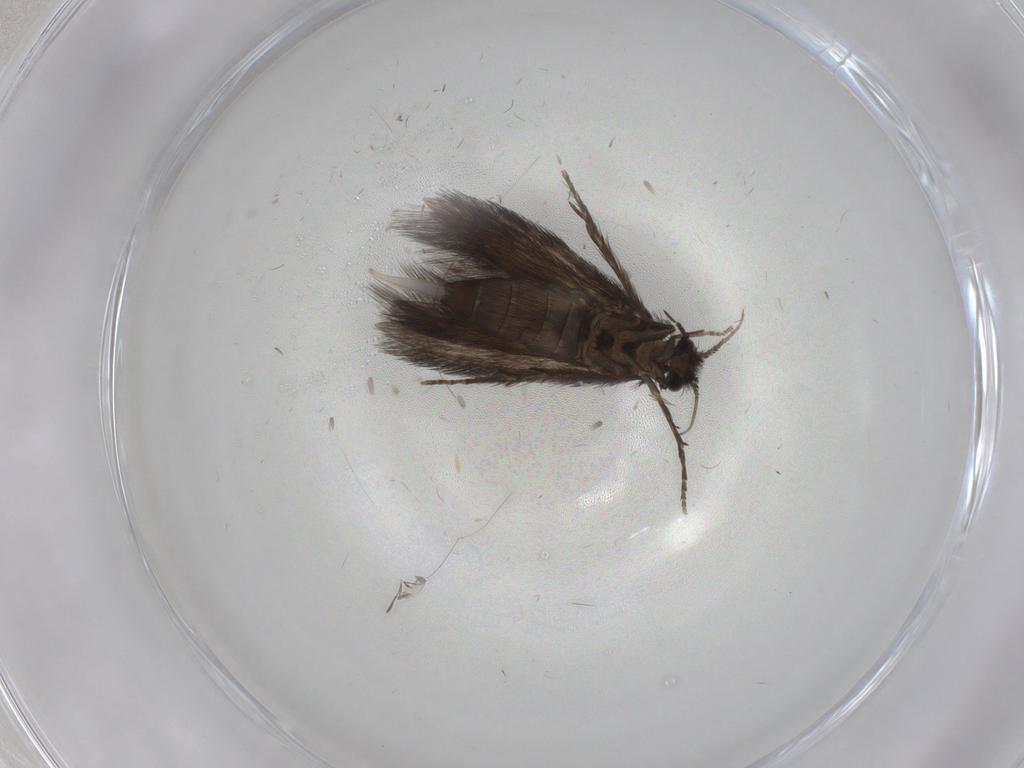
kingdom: Animalia
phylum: Arthropoda
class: Insecta
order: Trichoptera
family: Hydroptilidae
